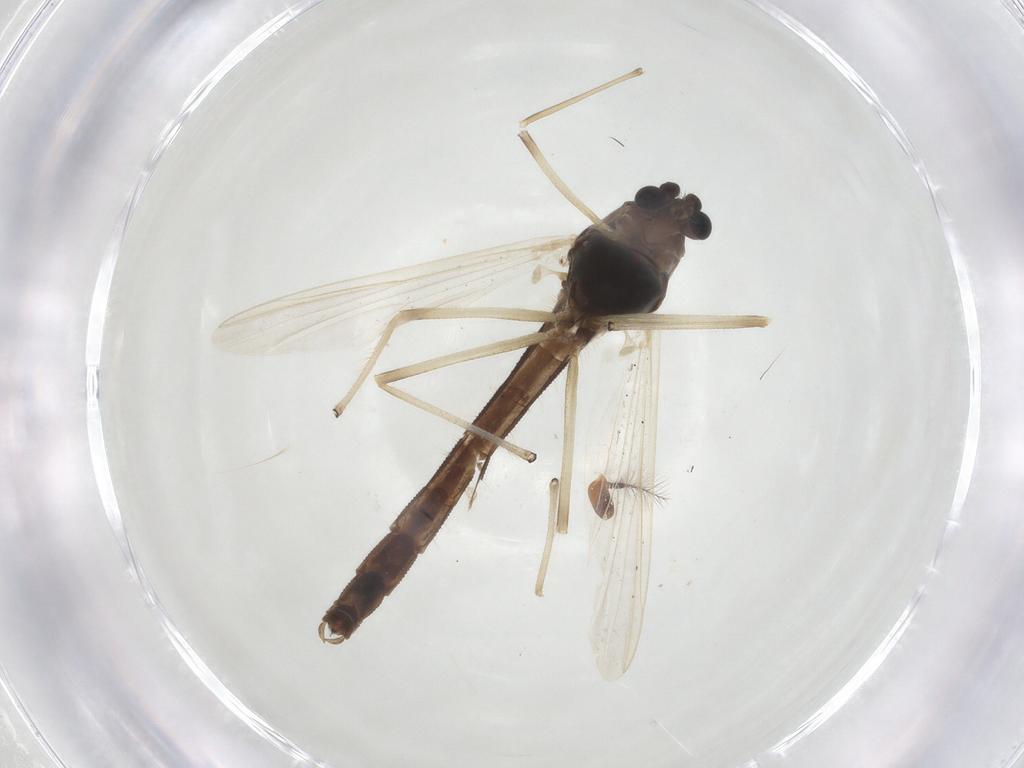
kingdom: Animalia
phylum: Arthropoda
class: Insecta
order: Diptera
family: Chironomidae
